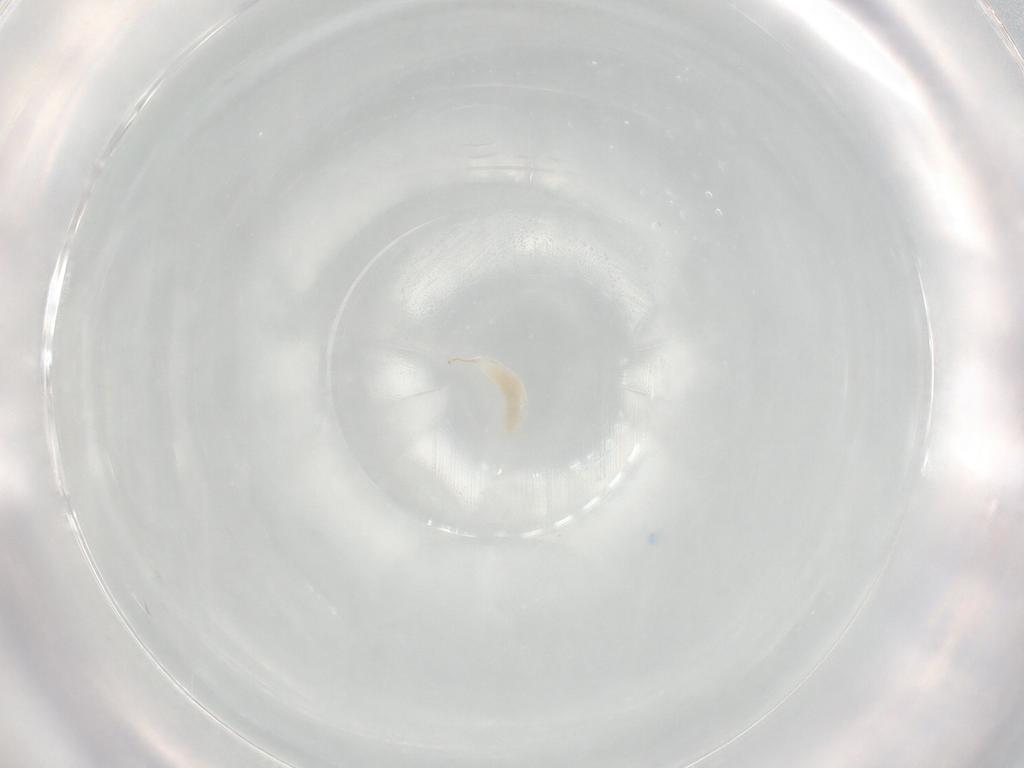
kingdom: Animalia
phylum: Arthropoda
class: Insecta
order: Hymenoptera
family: Ichneumonidae
